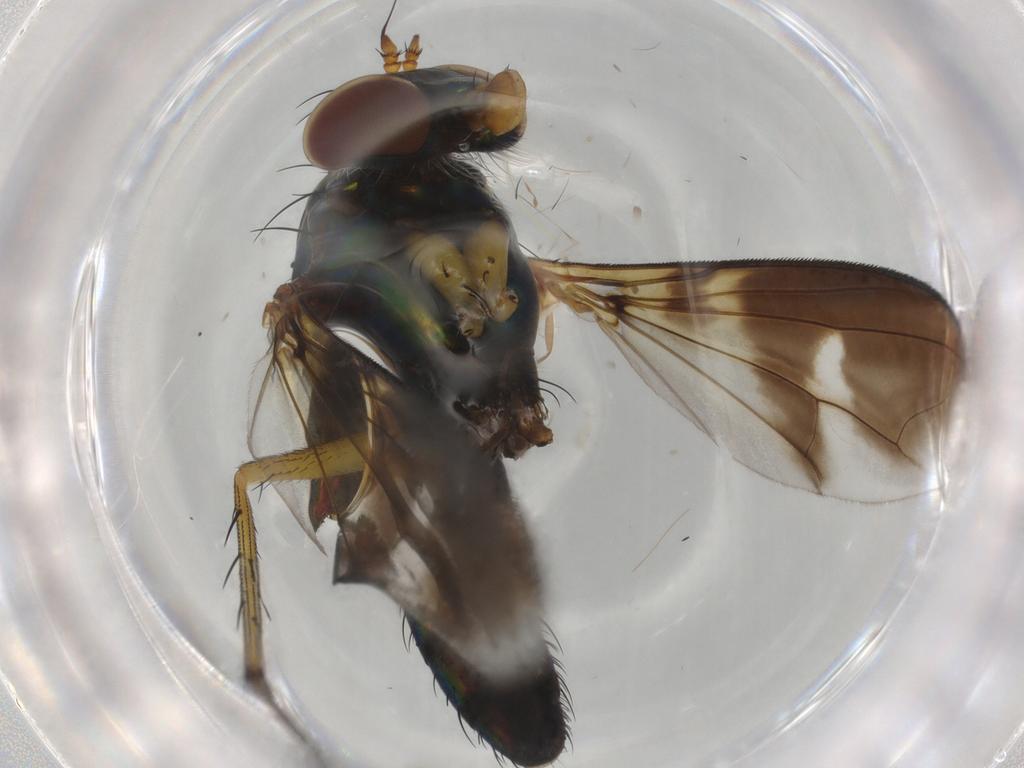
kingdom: Animalia
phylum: Arthropoda
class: Insecta
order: Diptera
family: Dolichopodidae
